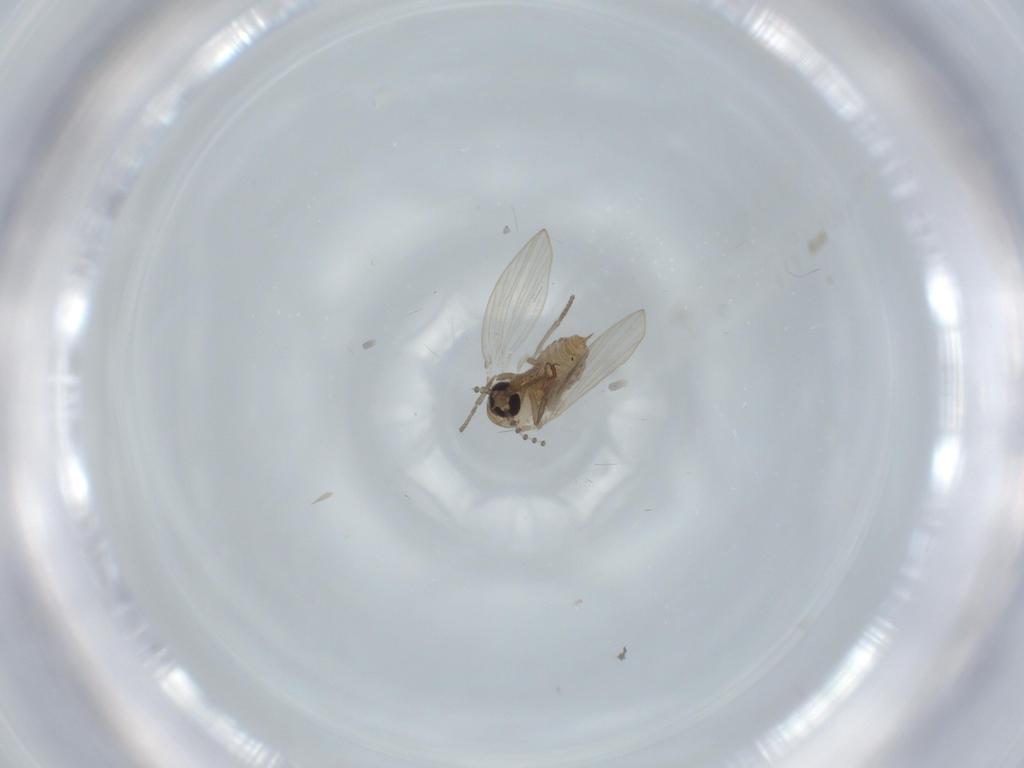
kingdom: Animalia
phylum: Arthropoda
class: Insecta
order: Diptera
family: Psychodidae
